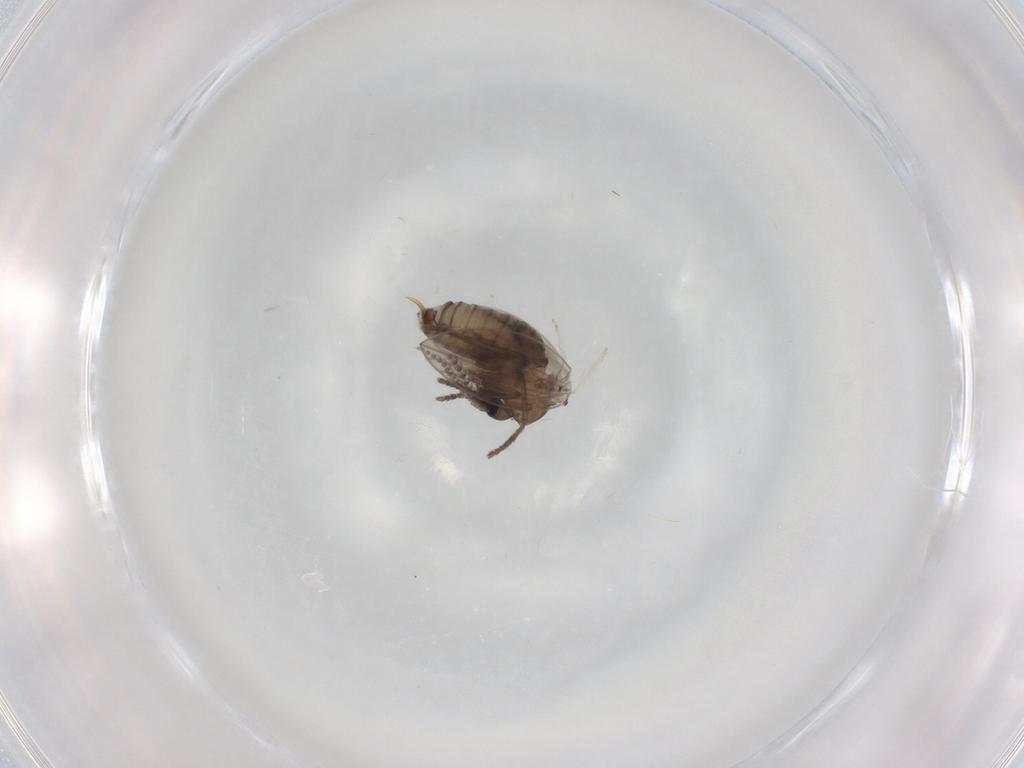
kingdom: Animalia
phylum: Arthropoda
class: Insecta
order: Diptera
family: Psychodidae
